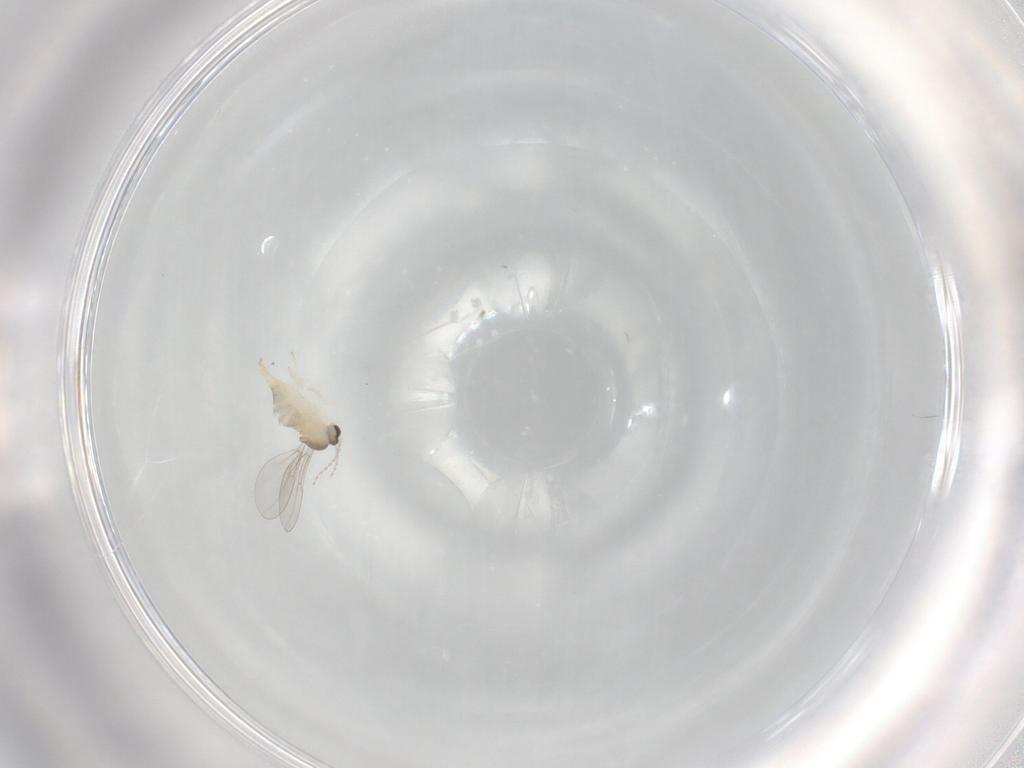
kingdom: Animalia
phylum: Arthropoda
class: Insecta
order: Diptera
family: Cecidomyiidae
